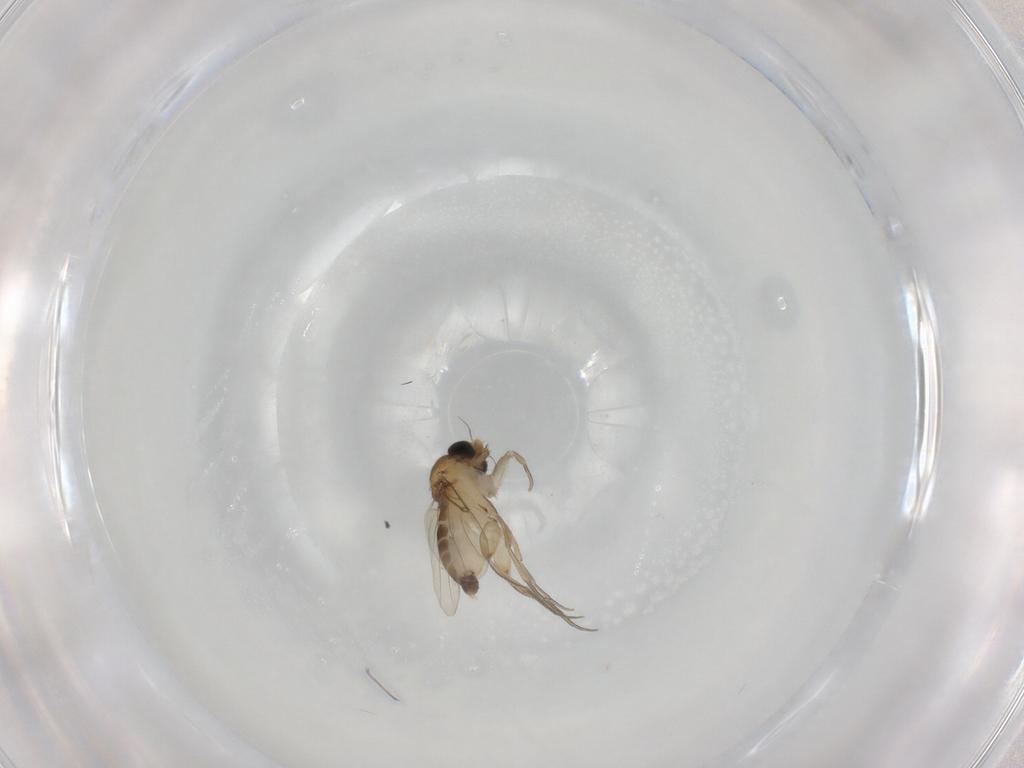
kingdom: Animalia
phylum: Arthropoda
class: Insecta
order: Diptera
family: Phoridae
